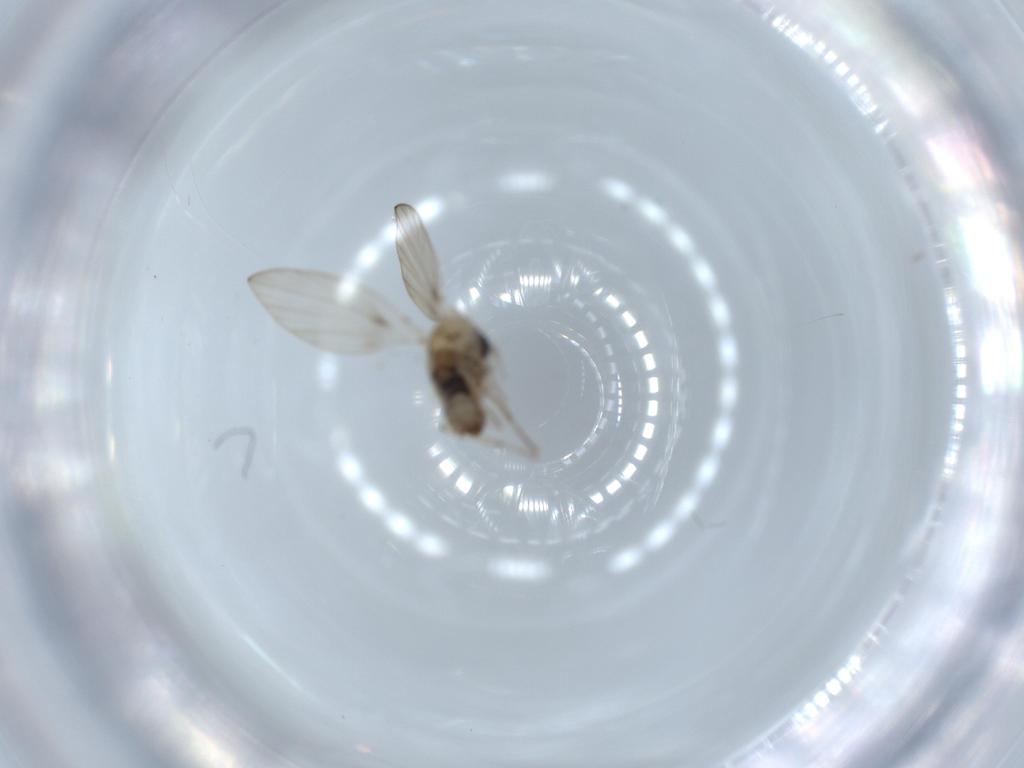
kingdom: Animalia
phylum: Arthropoda
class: Insecta
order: Diptera
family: Psychodidae
